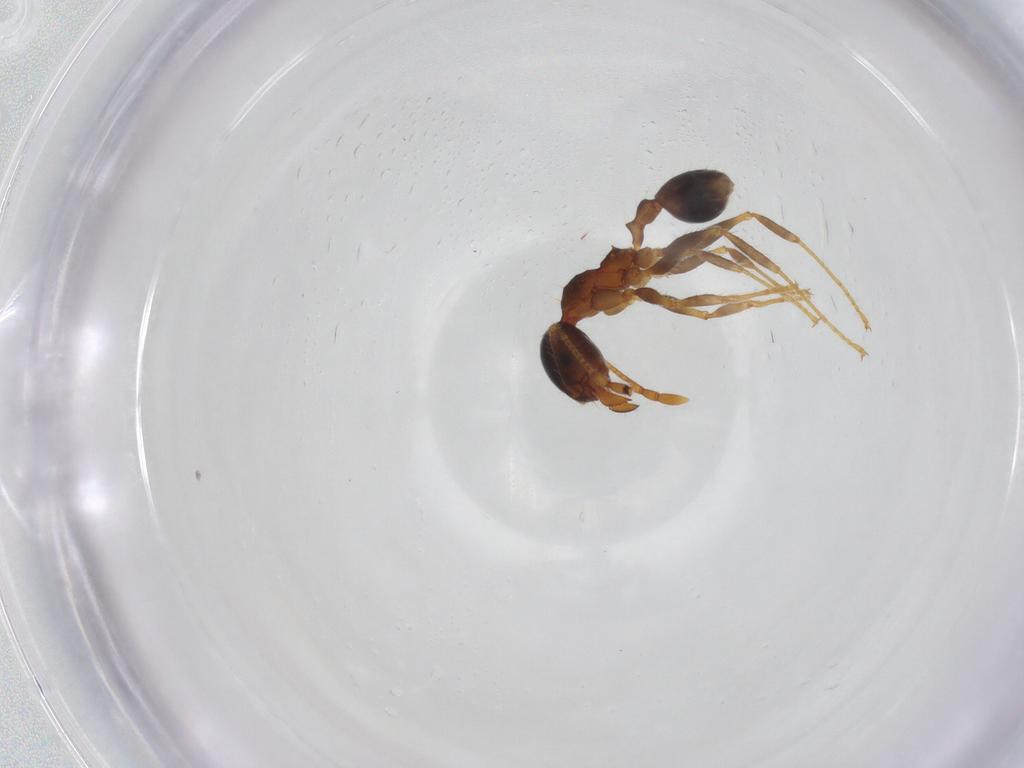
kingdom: Animalia
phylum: Arthropoda
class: Insecta
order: Hymenoptera
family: Formicidae
